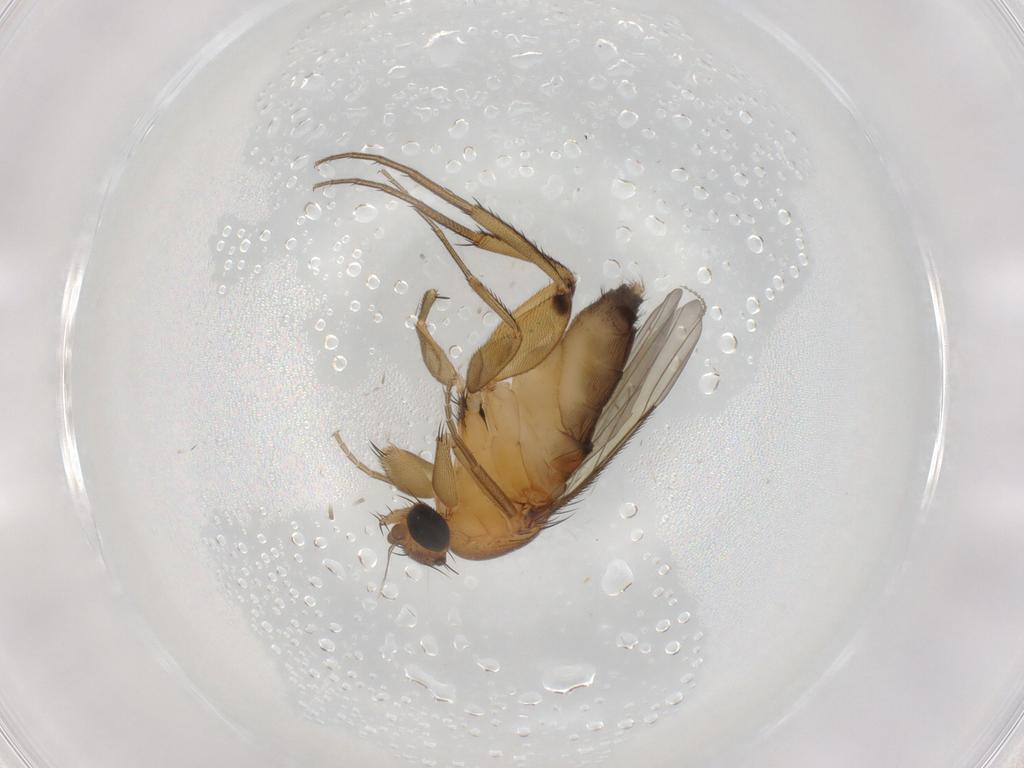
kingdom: Animalia
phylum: Arthropoda
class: Insecta
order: Diptera
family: Phoridae
